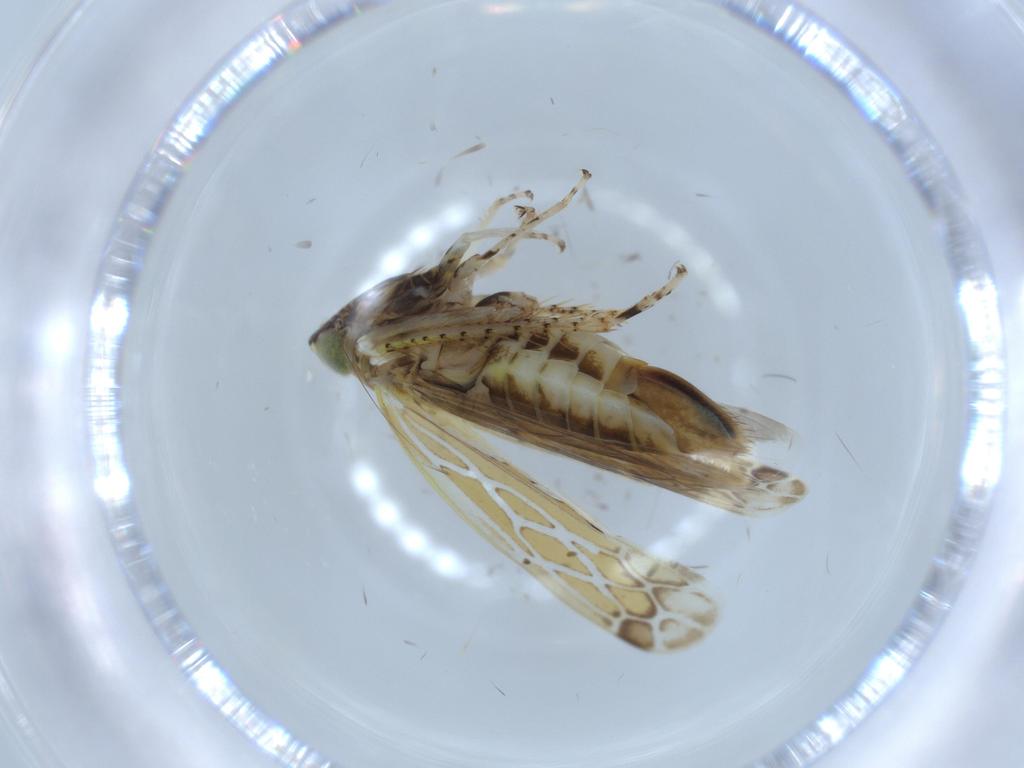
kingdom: Animalia
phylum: Arthropoda
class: Insecta
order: Hemiptera
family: Cicadellidae
